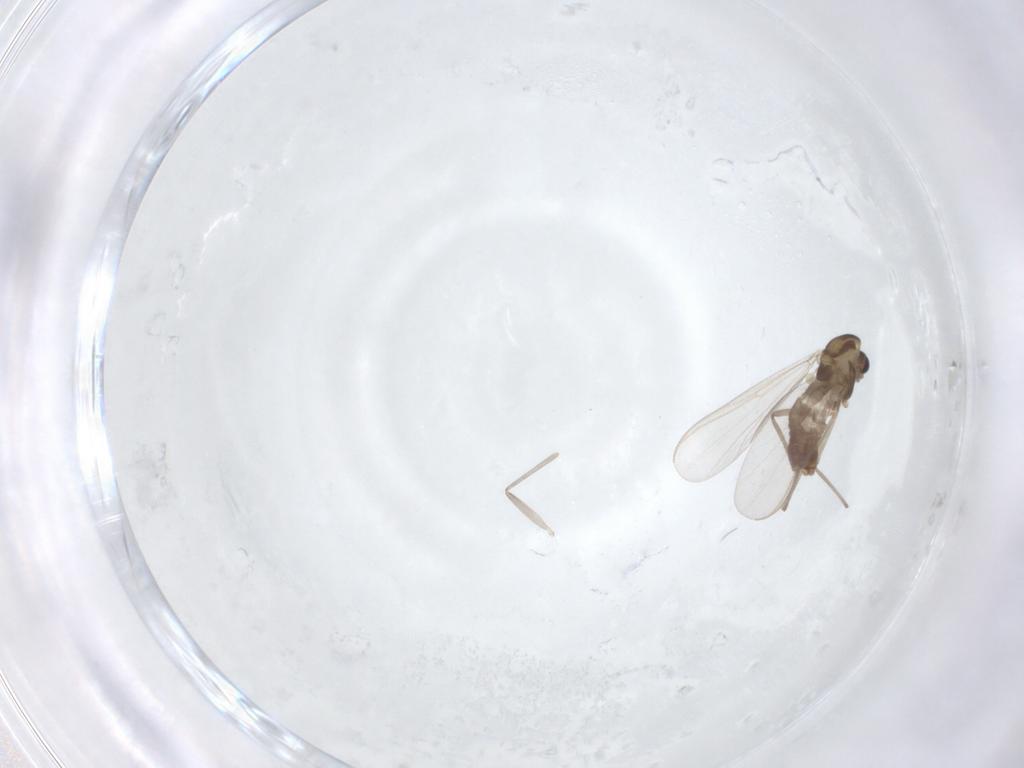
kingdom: Animalia
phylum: Arthropoda
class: Insecta
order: Diptera
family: Chironomidae
